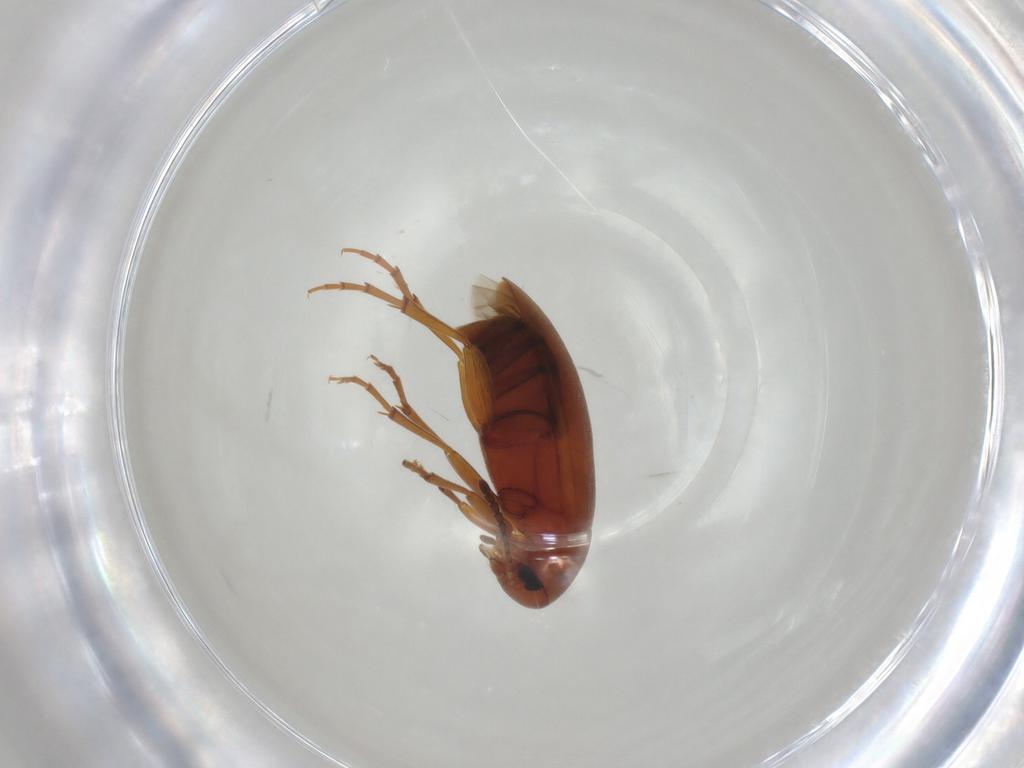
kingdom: Animalia
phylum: Arthropoda
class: Insecta
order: Coleoptera
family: Scraptiidae
